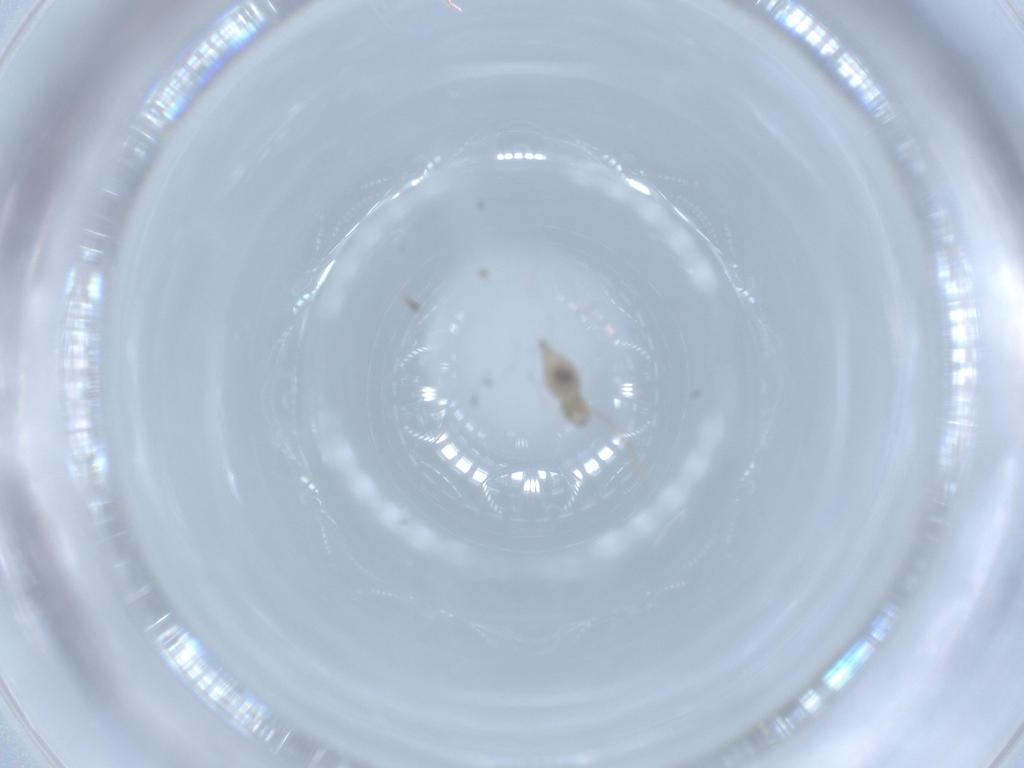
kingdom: Animalia
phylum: Arthropoda
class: Insecta
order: Diptera
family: Cecidomyiidae
